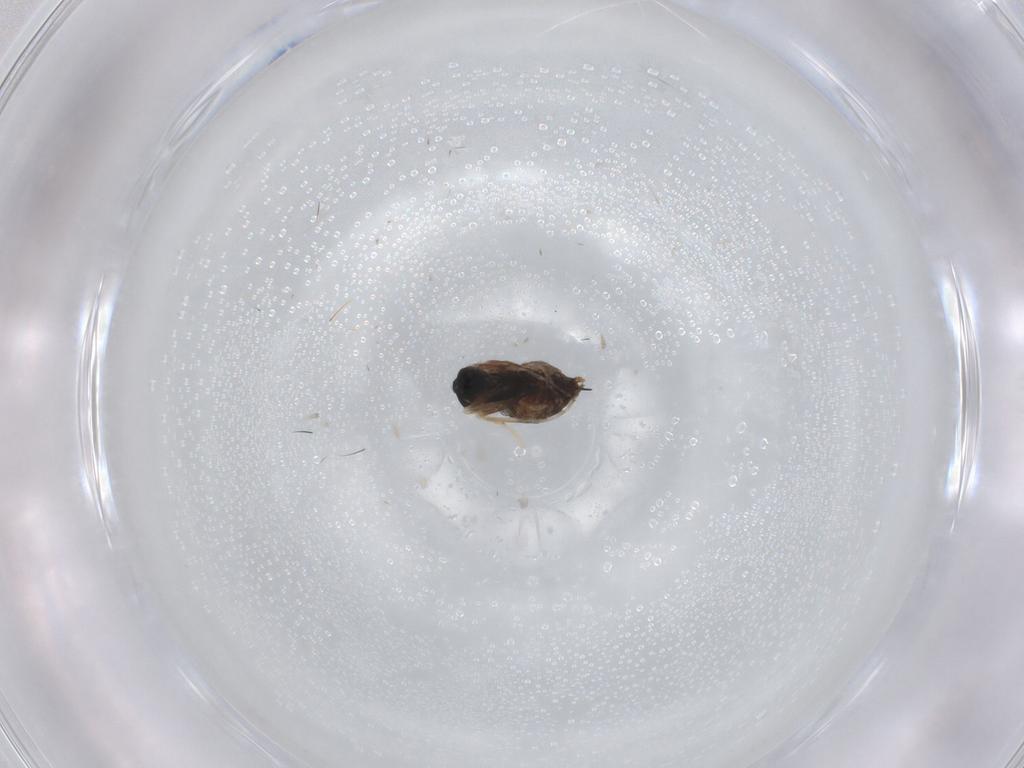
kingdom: Animalia
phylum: Arthropoda
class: Insecta
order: Diptera
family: Cecidomyiidae
